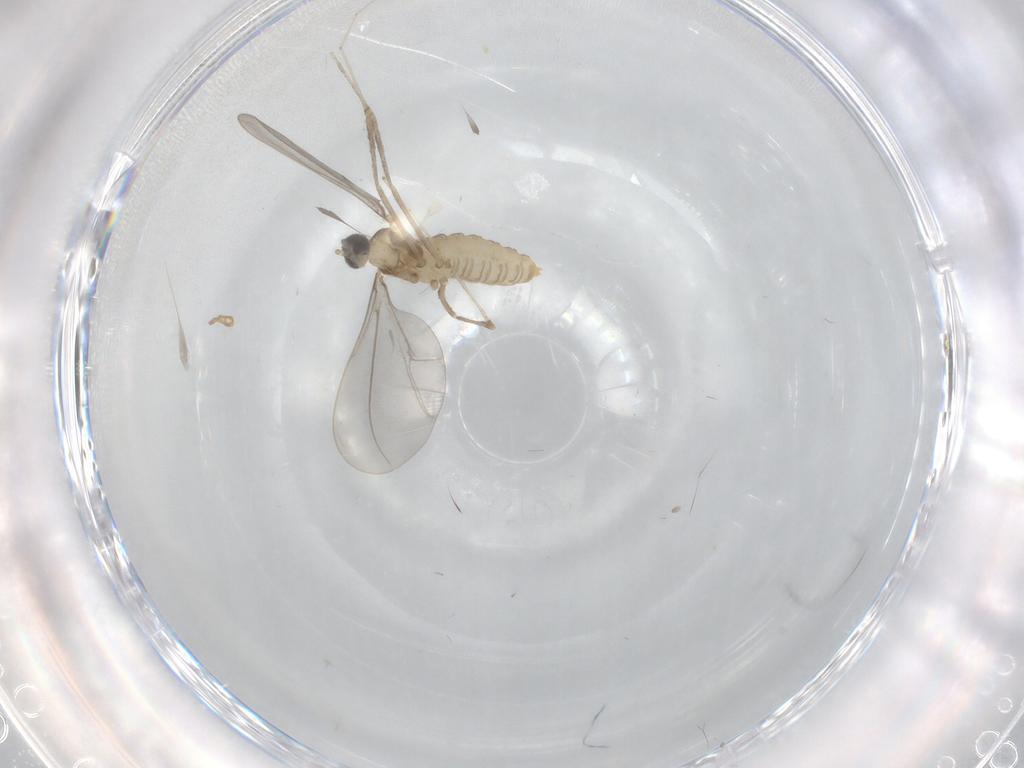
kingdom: Animalia
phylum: Arthropoda
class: Insecta
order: Diptera
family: Cecidomyiidae
